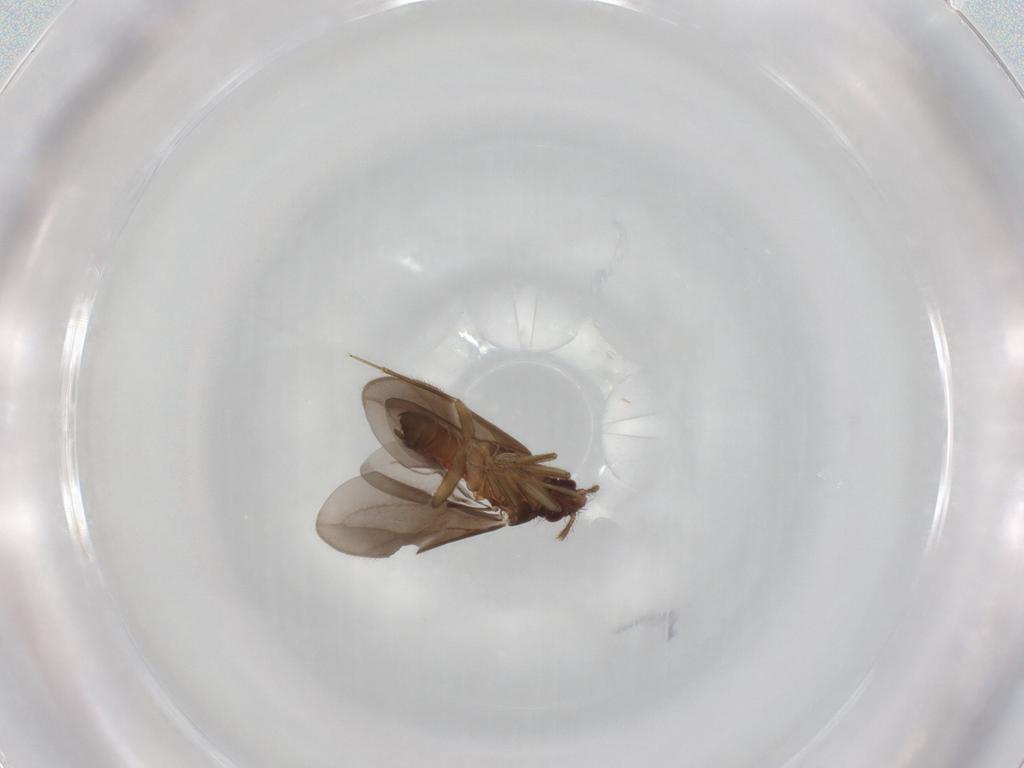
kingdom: Animalia
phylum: Arthropoda
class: Insecta
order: Hemiptera
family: Ceratocombidae
